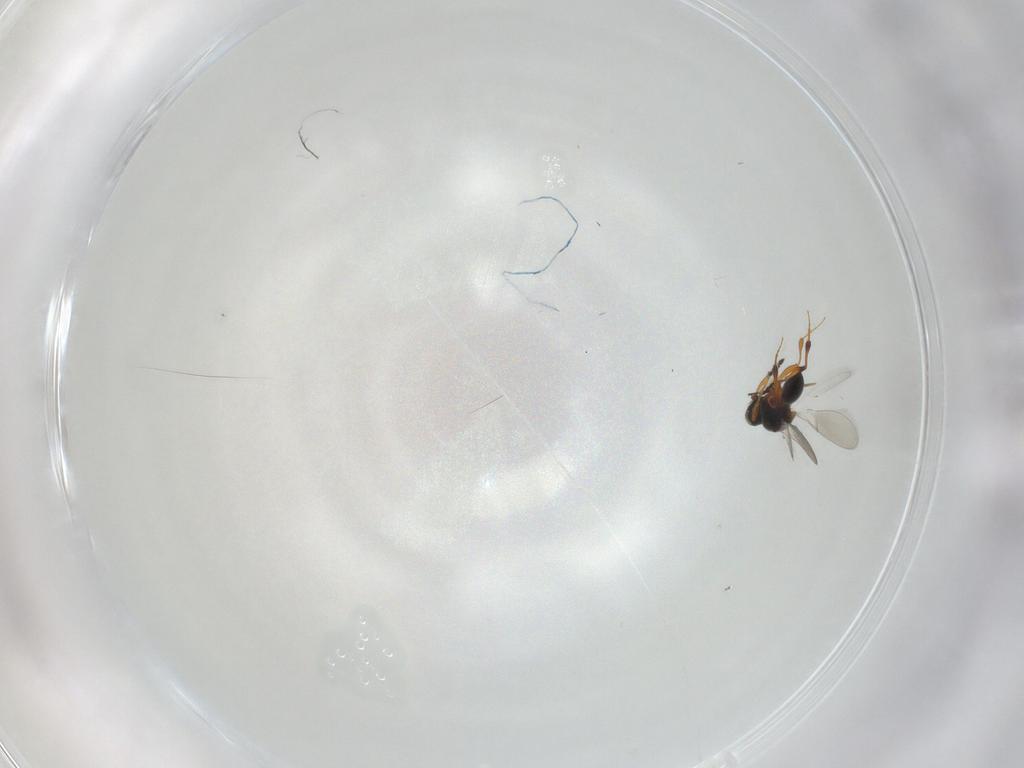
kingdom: Animalia
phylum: Arthropoda
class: Insecta
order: Hymenoptera
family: Platygastridae
